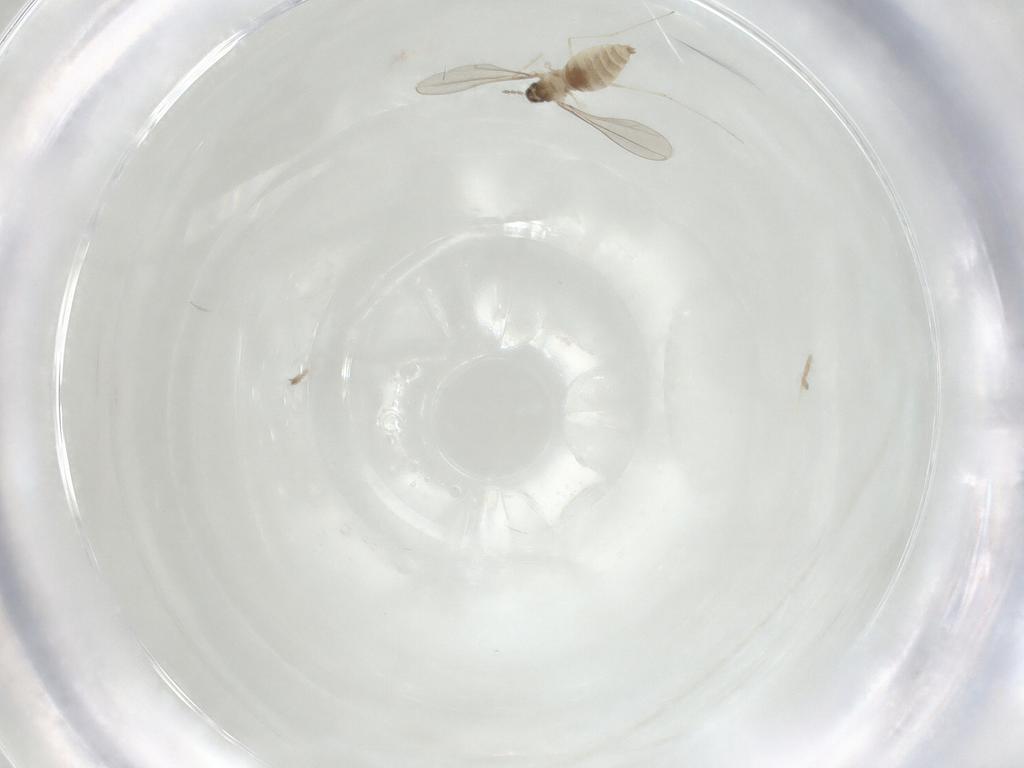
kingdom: Animalia
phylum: Arthropoda
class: Insecta
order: Diptera
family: Cecidomyiidae
